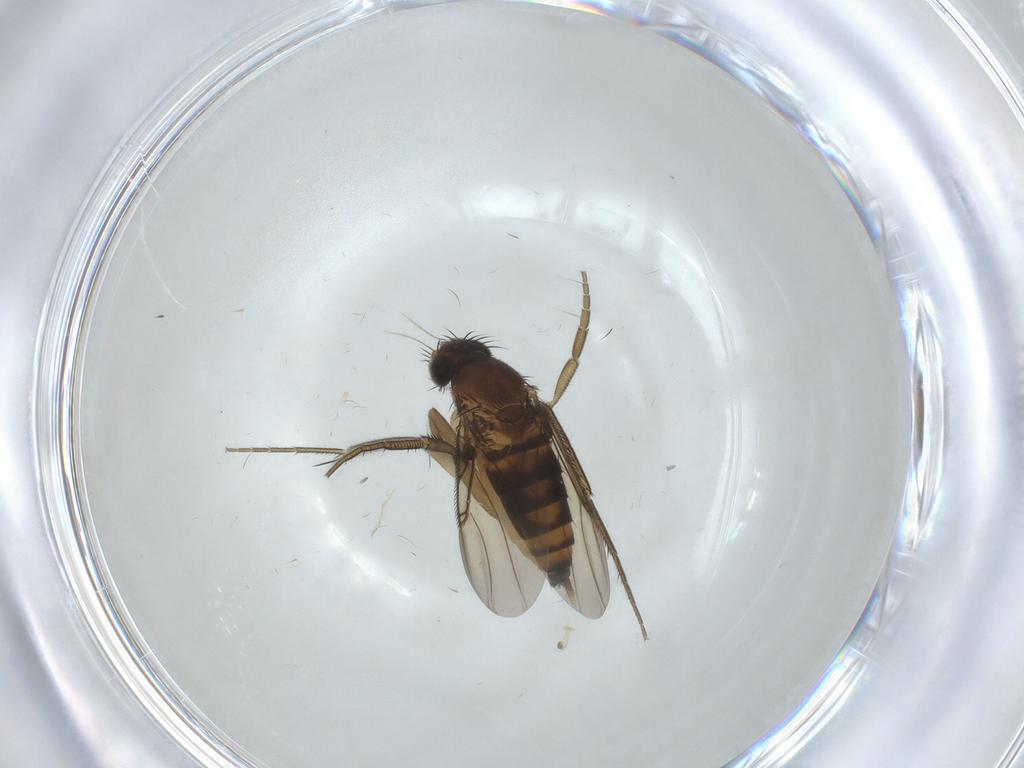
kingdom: Animalia
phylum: Arthropoda
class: Insecta
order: Diptera
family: Phoridae
